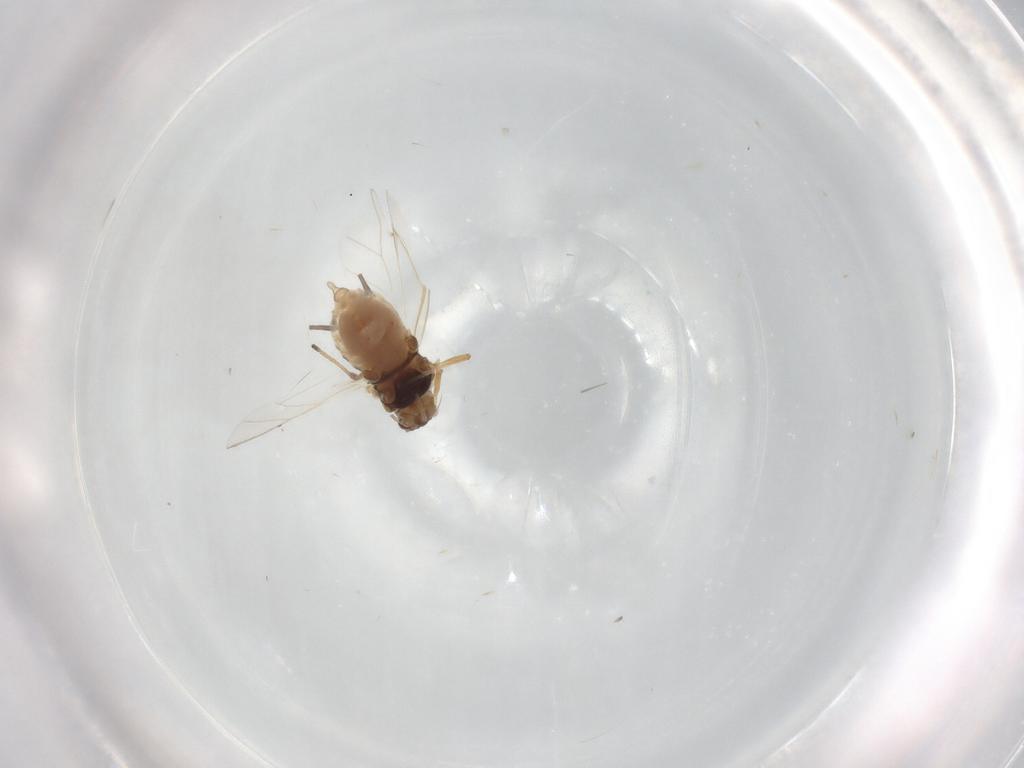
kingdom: Animalia
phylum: Arthropoda
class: Insecta
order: Hemiptera
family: Aphididae
